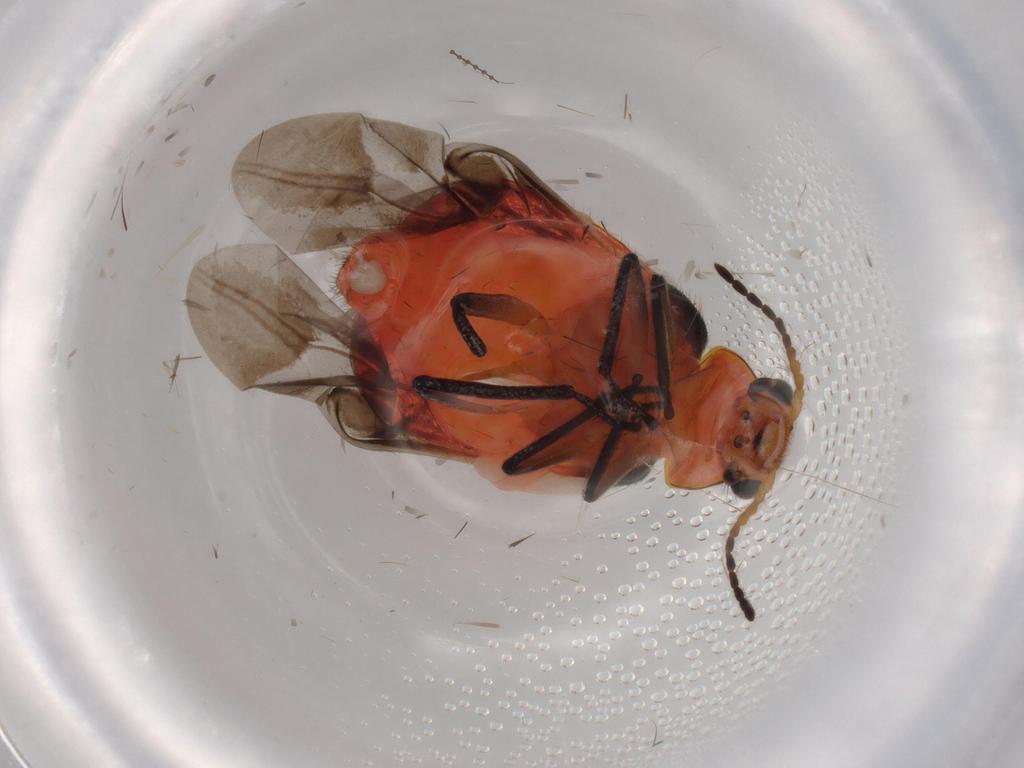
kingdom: Animalia
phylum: Arthropoda
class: Insecta
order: Coleoptera
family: Melyridae
